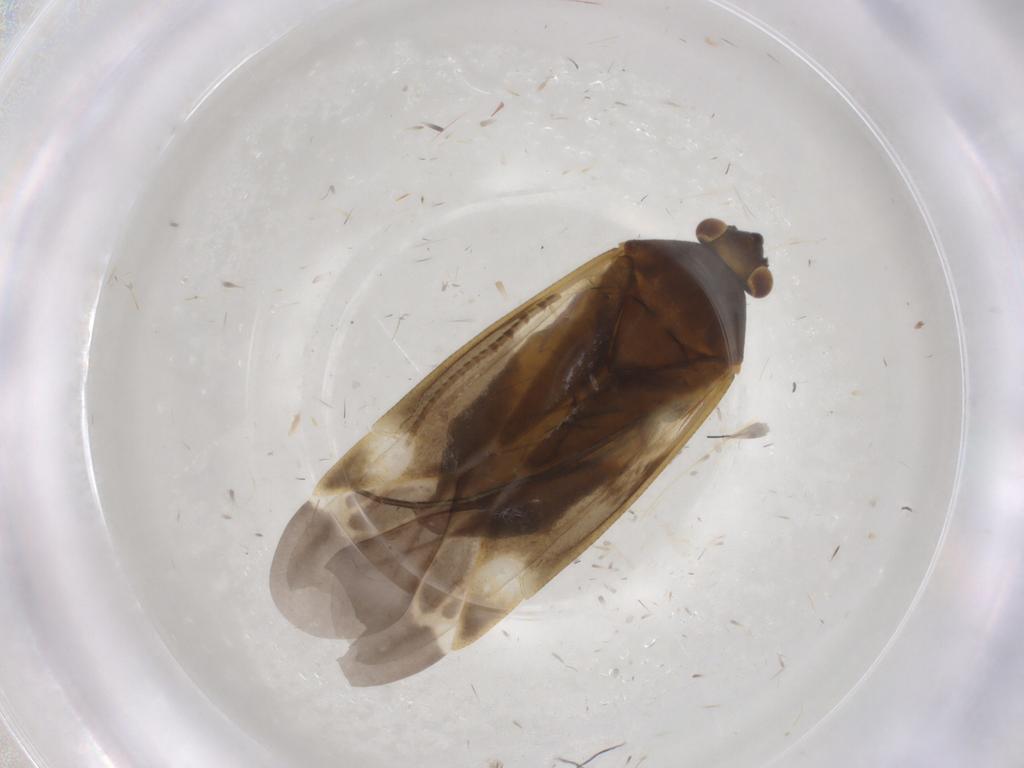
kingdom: Animalia
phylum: Arthropoda
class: Insecta
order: Hemiptera
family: Miridae
